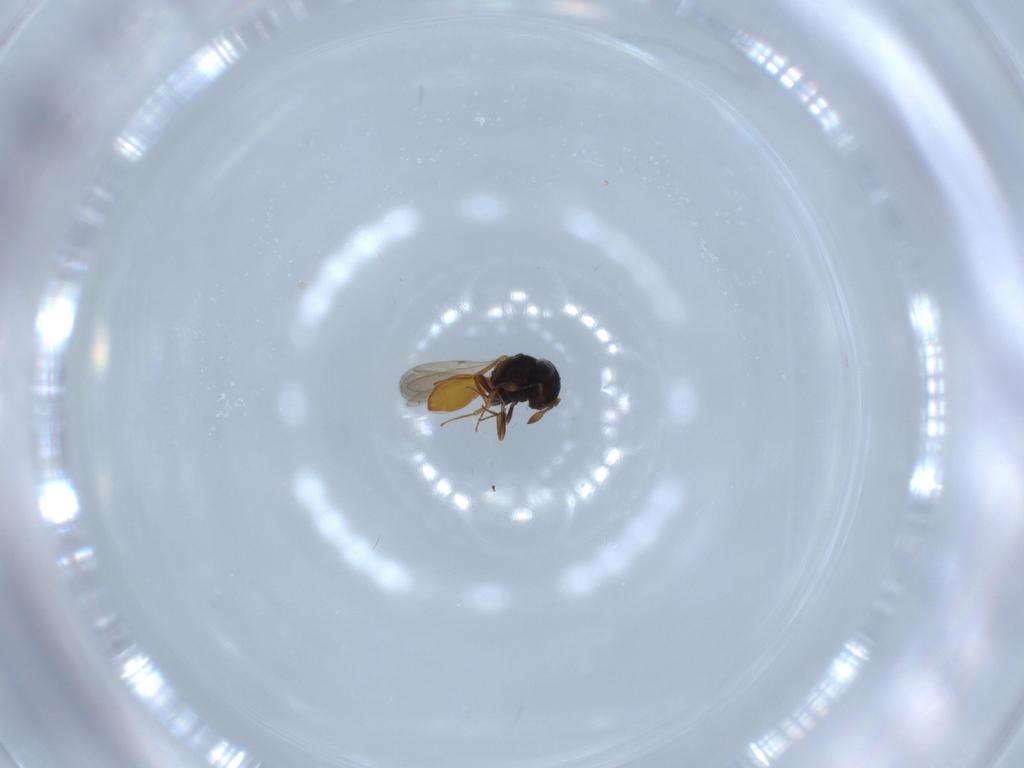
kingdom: Animalia
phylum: Arthropoda
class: Insecta
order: Hymenoptera
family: Scelionidae
